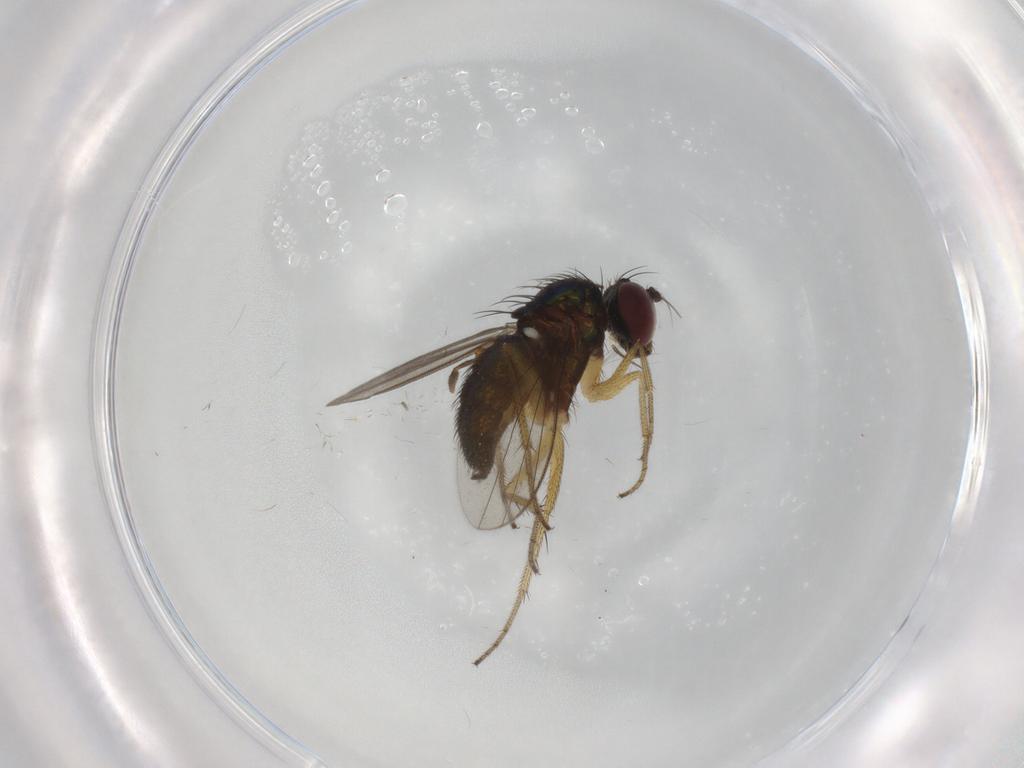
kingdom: Animalia
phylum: Arthropoda
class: Insecta
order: Diptera
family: Chironomidae
